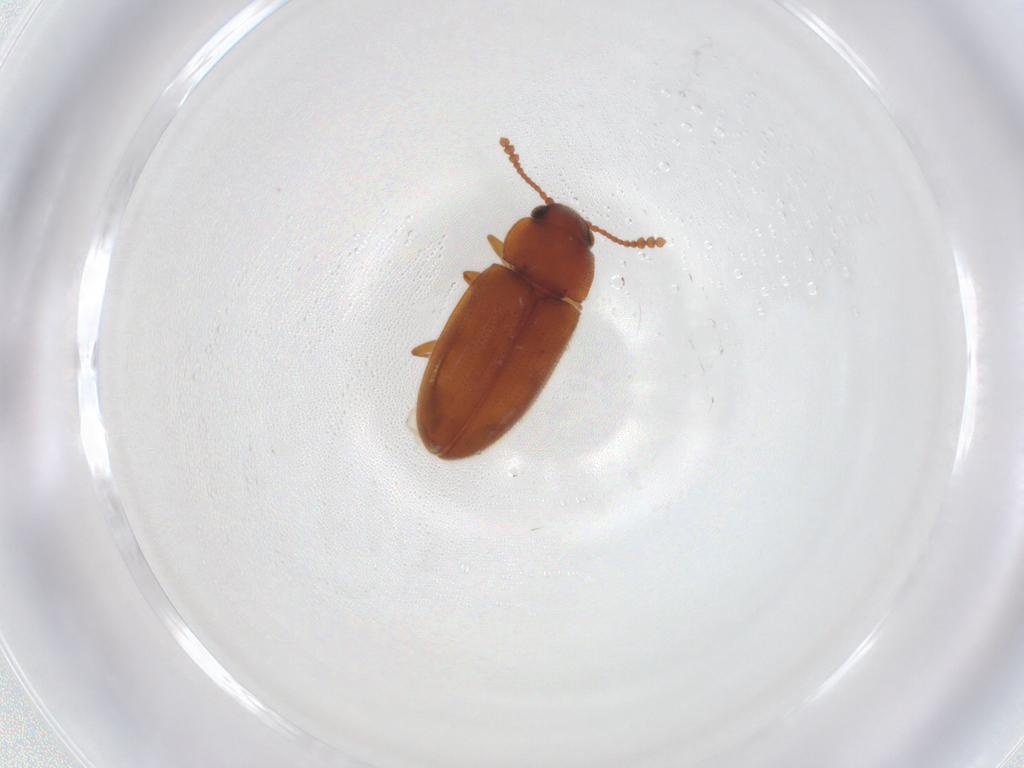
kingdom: Animalia
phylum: Arthropoda
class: Insecta
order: Coleoptera
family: Erotylidae
